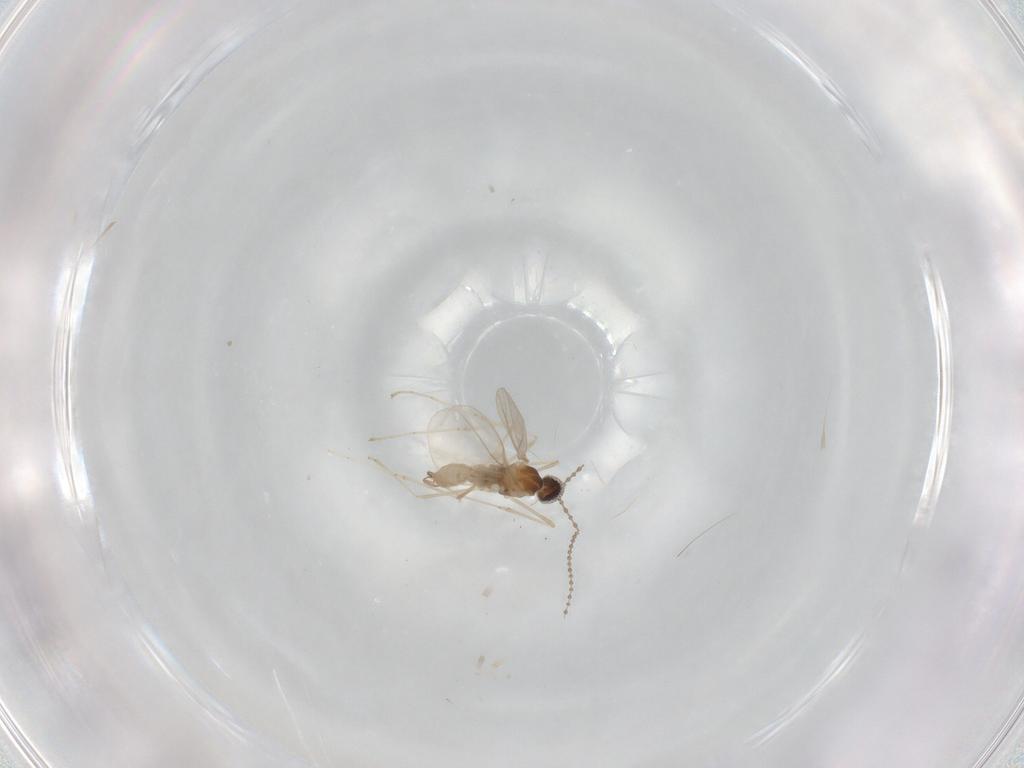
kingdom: Animalia
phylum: Arthropoda
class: Insecta
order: Diptera
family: Cecidomyiidae
